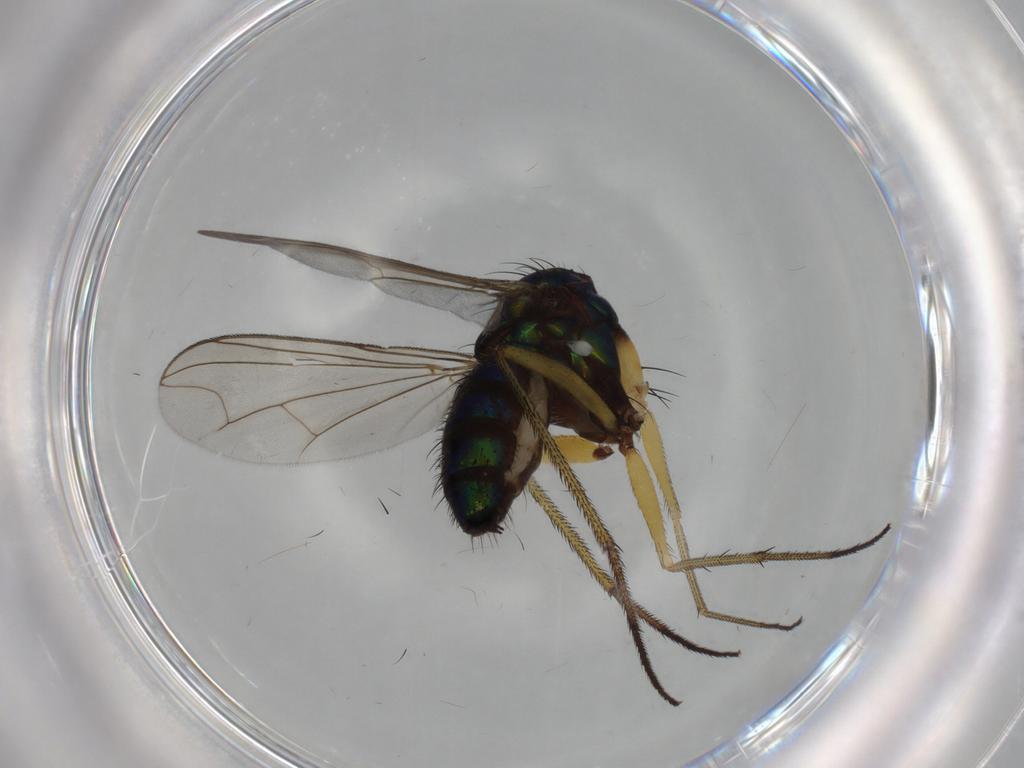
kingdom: Animalia
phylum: Arthropoda
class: Insecta
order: Diptera
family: Dolichopodidae
